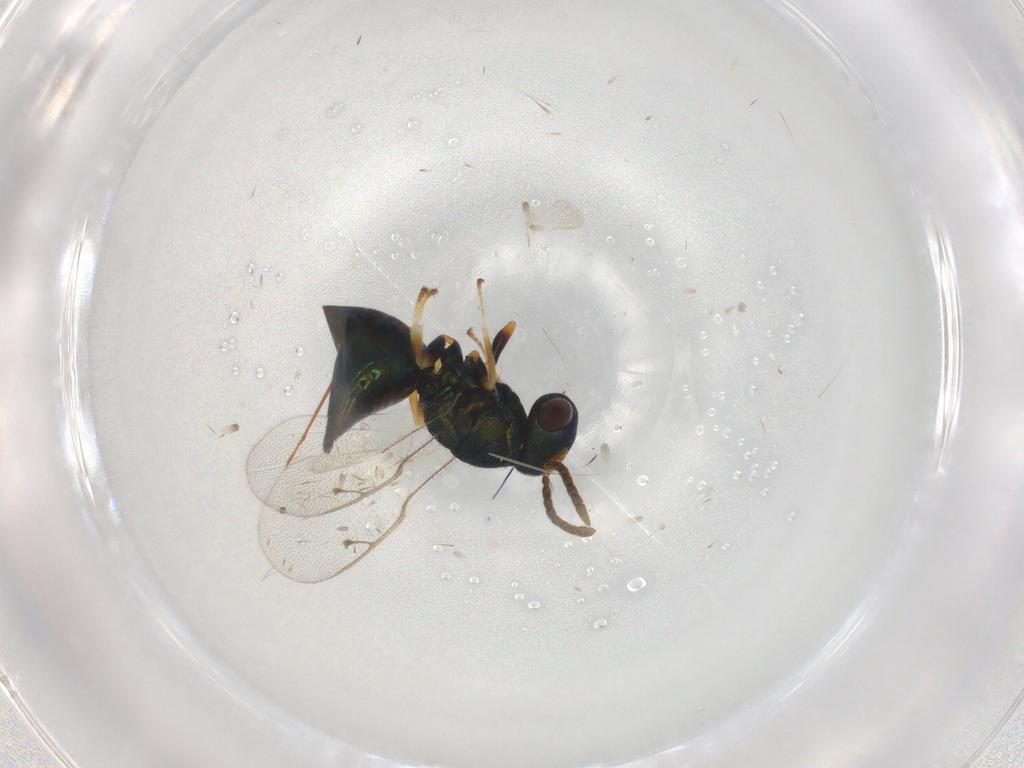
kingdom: Animalia
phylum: Arthropoda
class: Insecta
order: Hymenoptera
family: Pteromalidae
